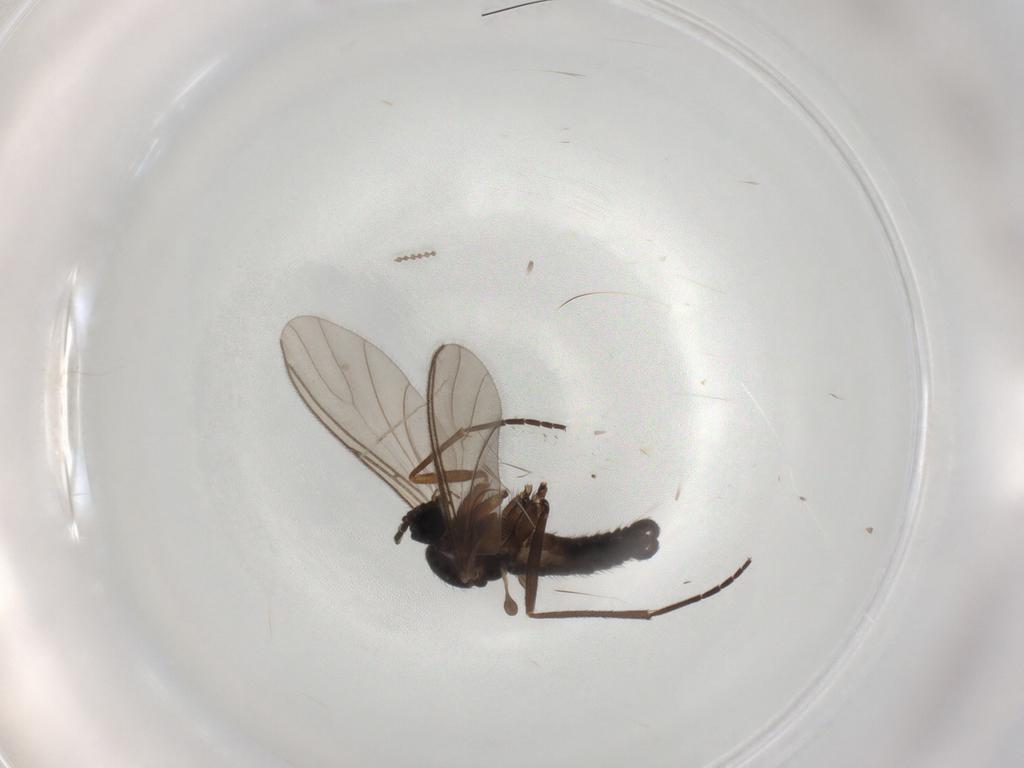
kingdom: Animalia
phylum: Arthropoda
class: Insecta
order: Diptera
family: Sciaridae
